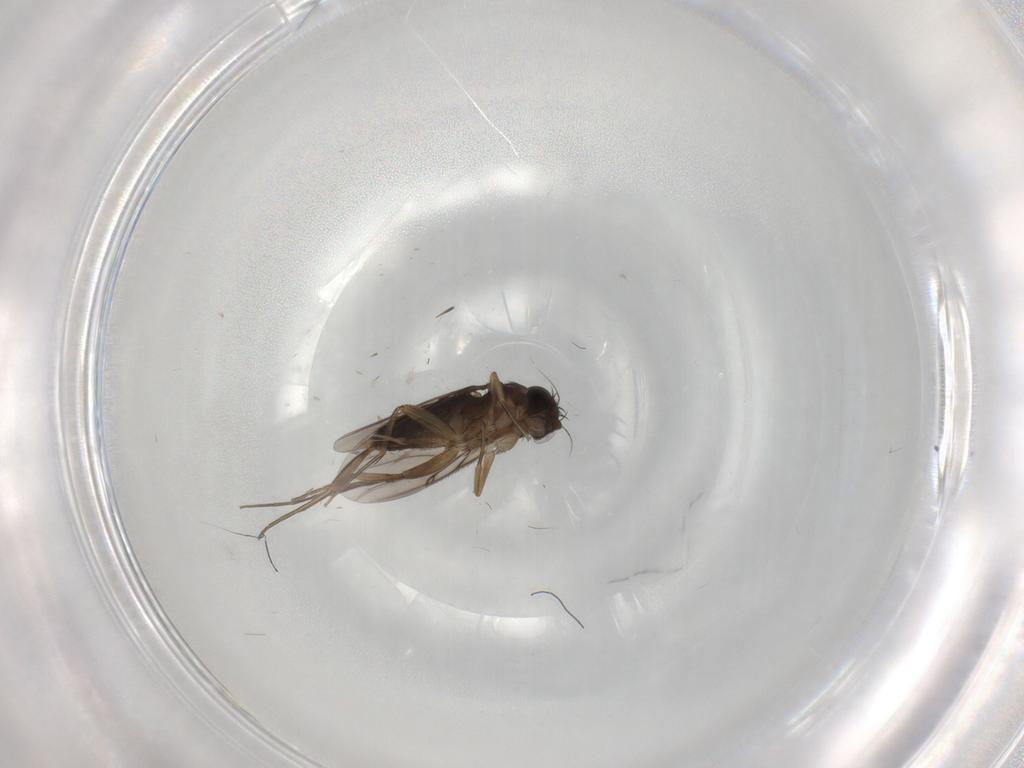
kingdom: Animalia
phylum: Arthropoda
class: Insecta
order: Diptera
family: Phoridae
